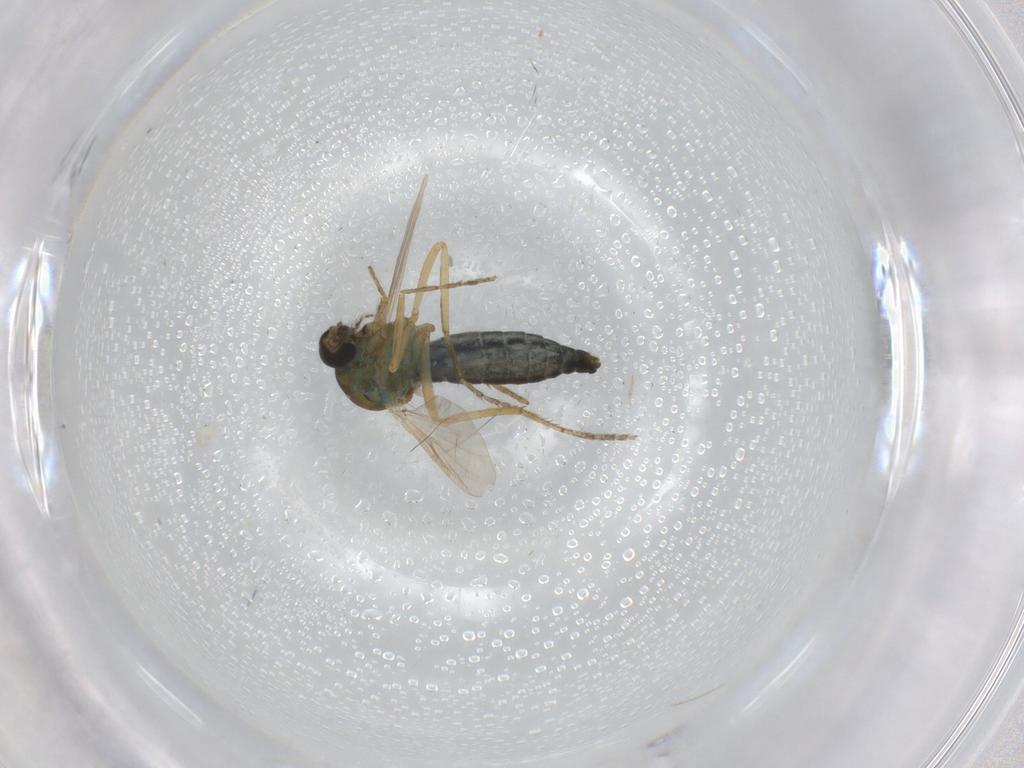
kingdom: Animalia
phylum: Arthropoda
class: Insecta
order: Diptera
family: Ceratopogonidae
